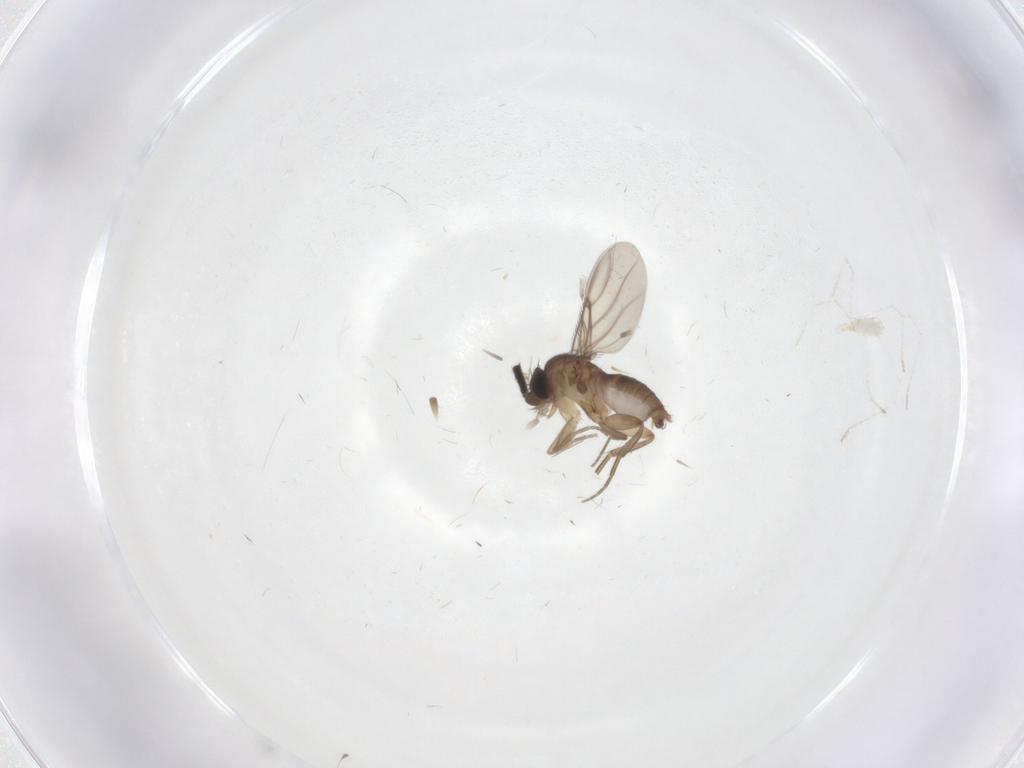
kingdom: Animalia
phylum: Arthropoda
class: Insecta
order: Diptera
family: Phoridae
